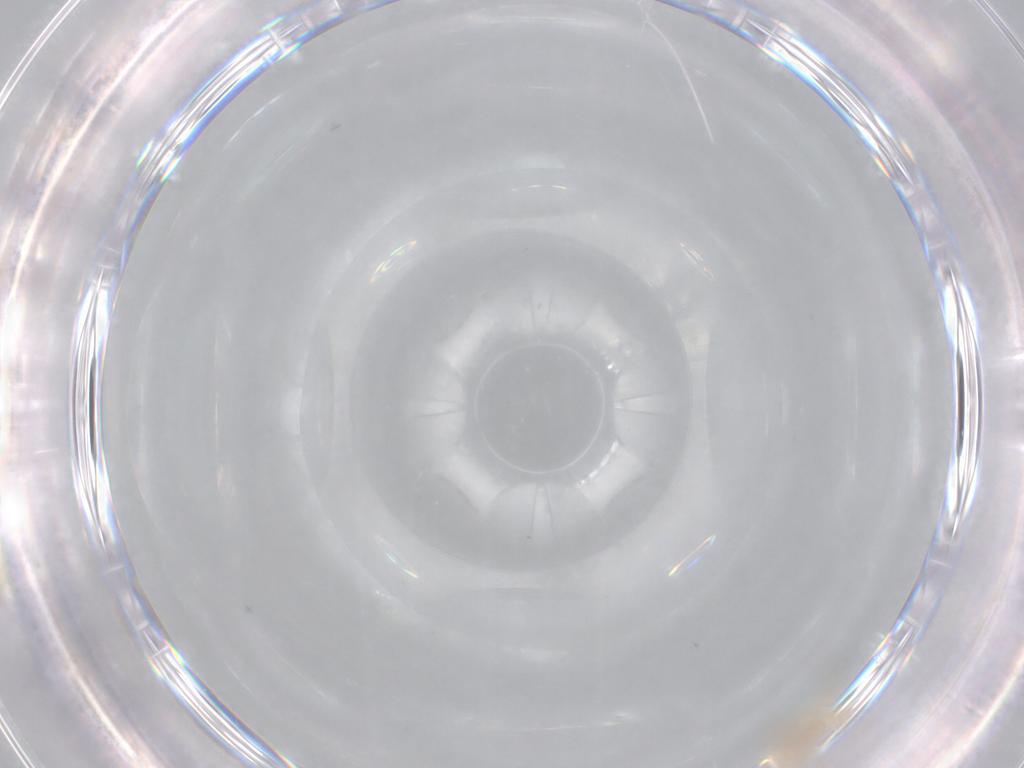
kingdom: Animalia
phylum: Arthropoda
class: Arachnida
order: Trombidiformes
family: Erythraeidae
